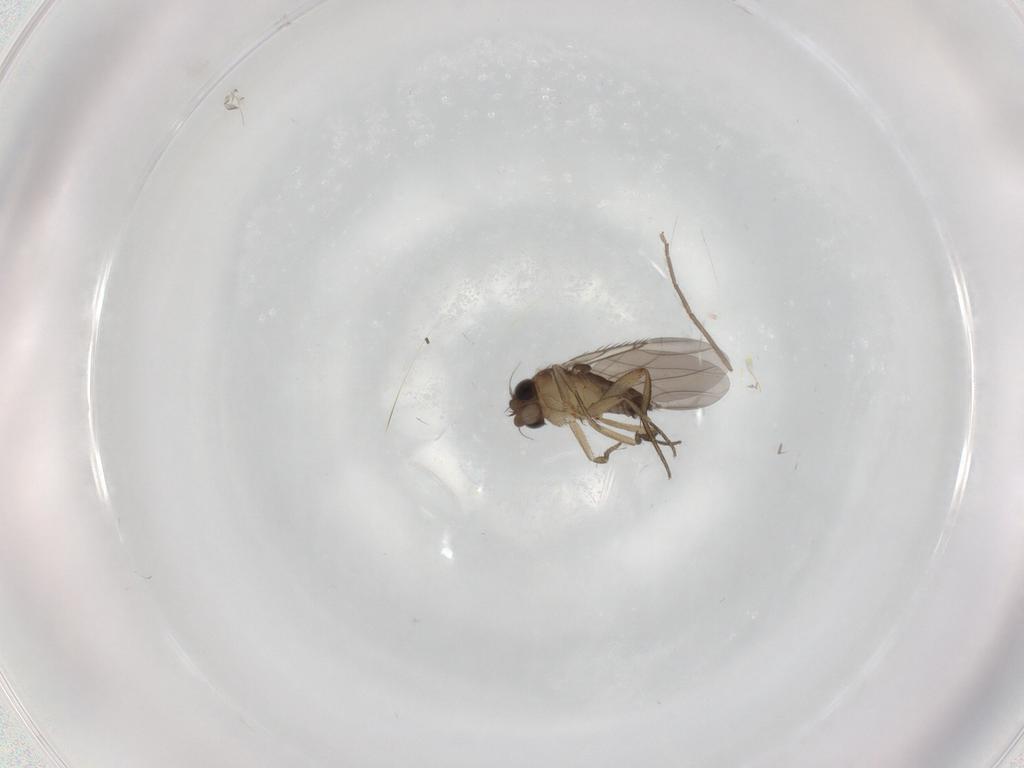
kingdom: Animalia
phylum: Arthropoda
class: Insecta
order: Diptera
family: Phoridae
